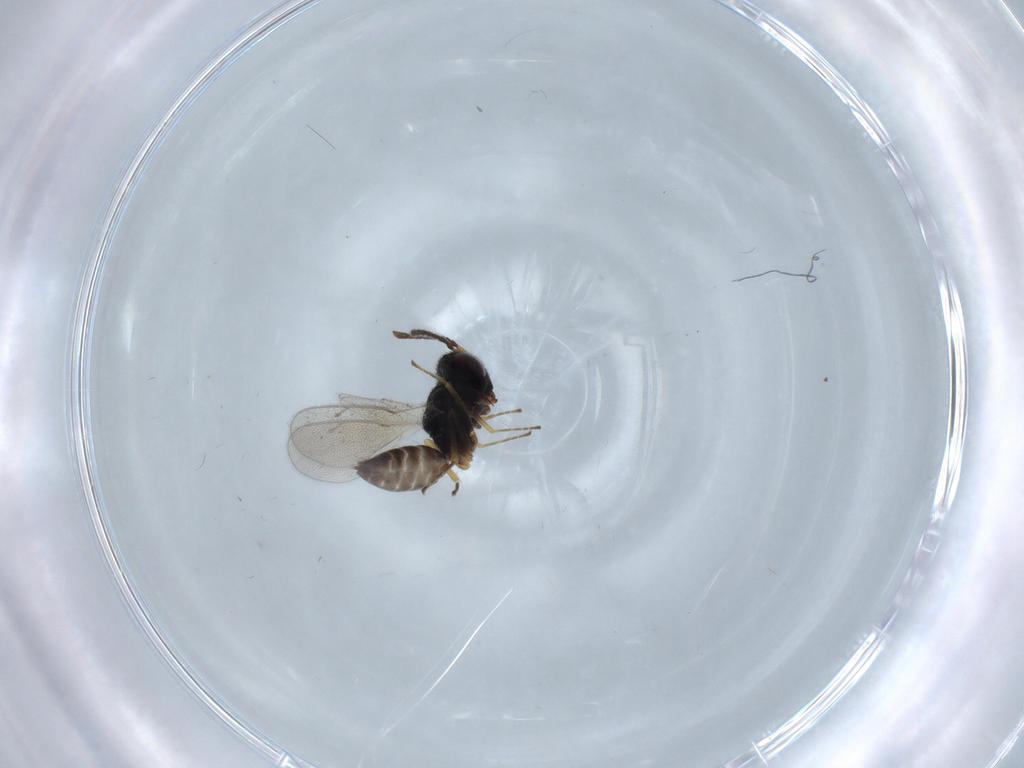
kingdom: Animalia
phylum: Arthropoda
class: Insecta
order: Hymenoptera
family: Pteromalidae
